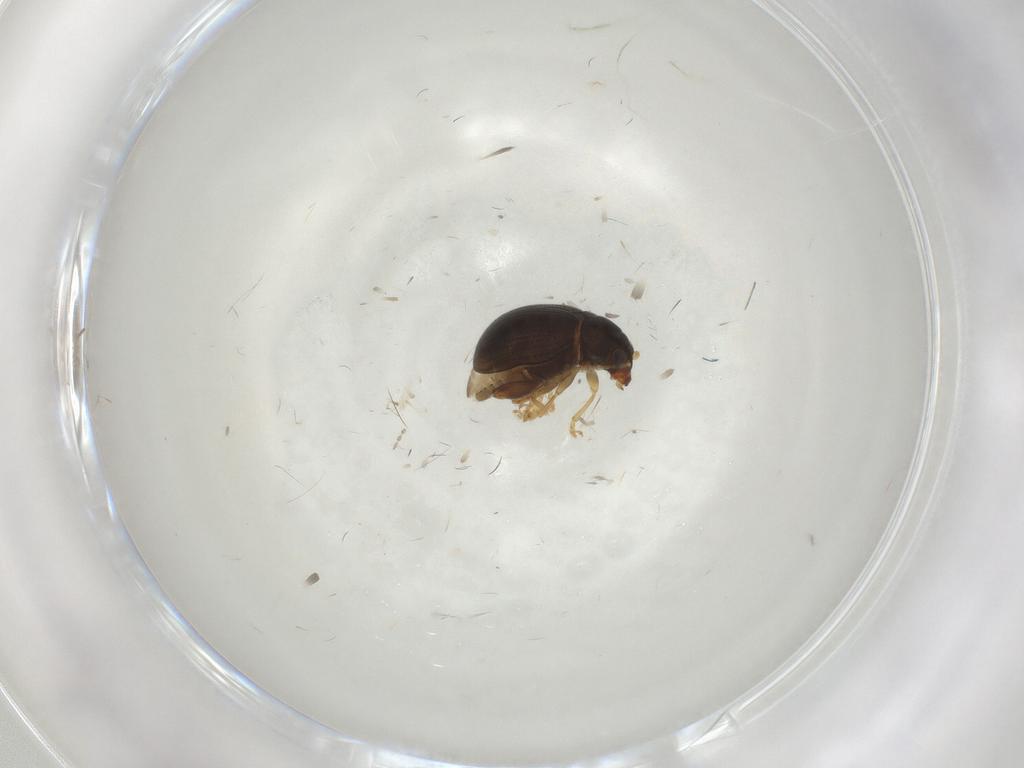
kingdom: Animalia
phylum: Arthropoda
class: Insecta
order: Coleoptera
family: Chrysomelidae
